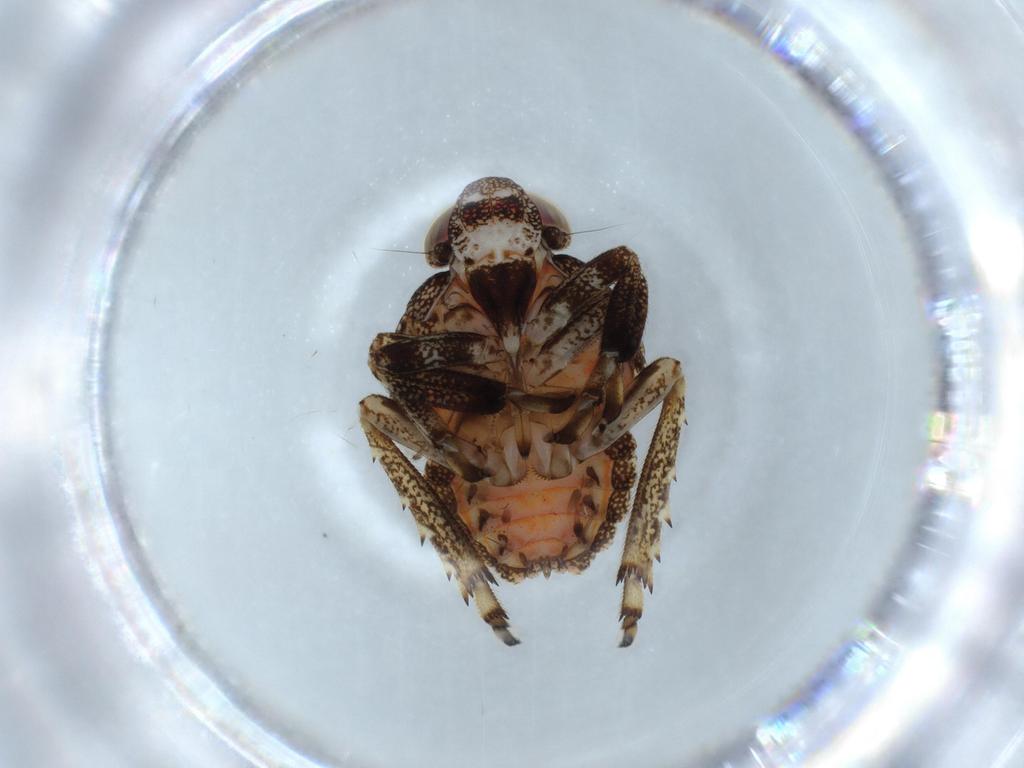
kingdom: Animalia
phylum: Arthropoda
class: Insecta
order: Hemiptera
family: Issidae
